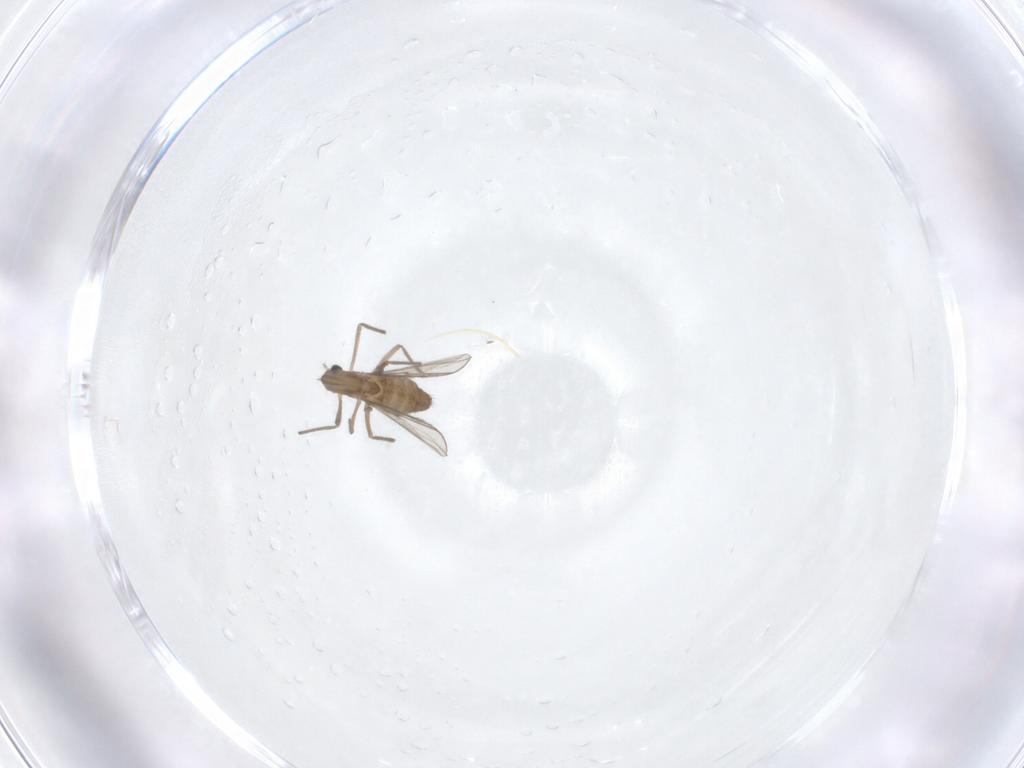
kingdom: Animalia
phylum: Arthropoda
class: Insecta
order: Diptera
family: Chironomidae
